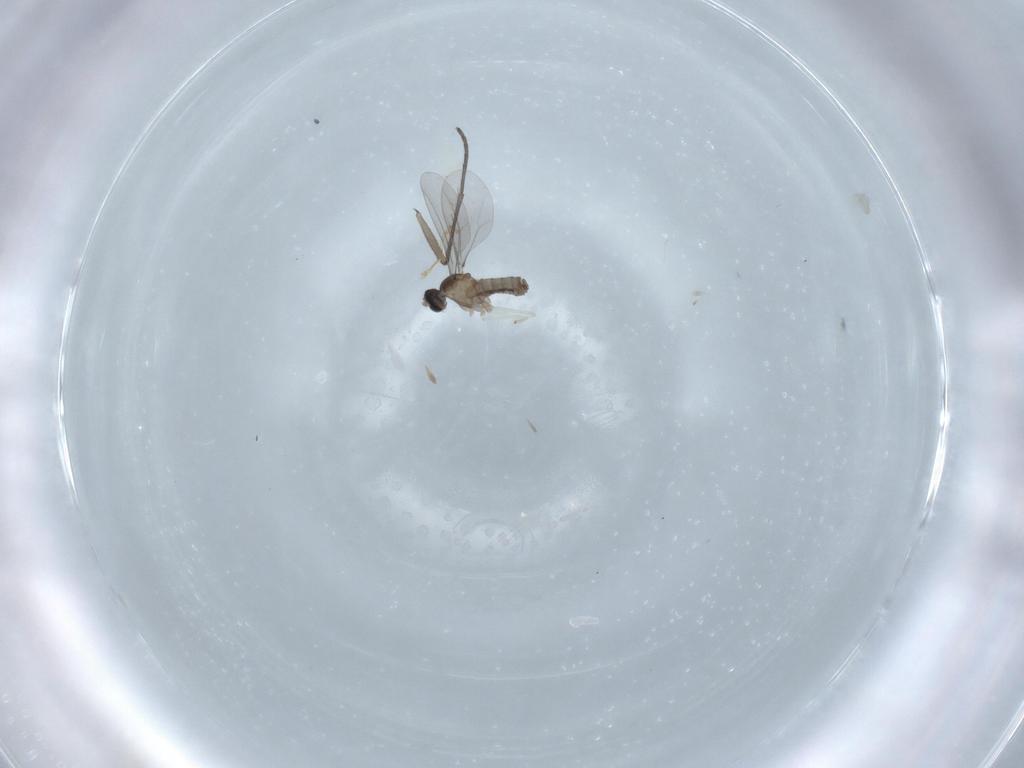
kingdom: Animalia
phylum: Arthropoda
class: Insecta
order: Diptera
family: Cecidomyiidae
